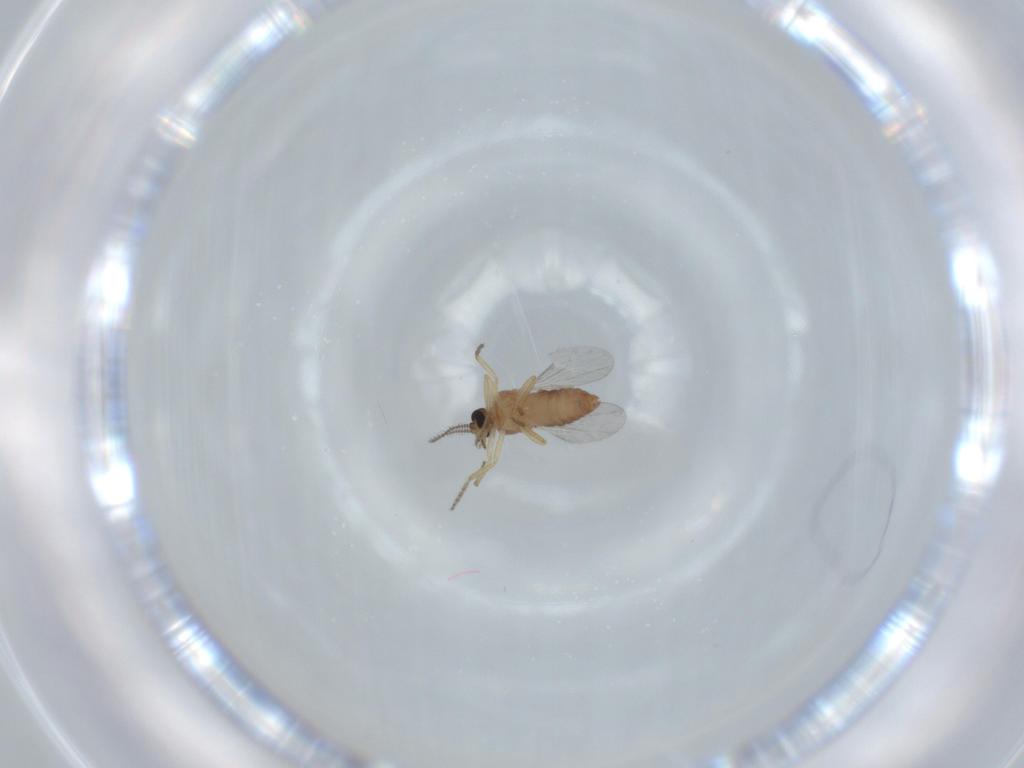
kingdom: Animalia
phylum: Arthropoda
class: Insecta
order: Diptera
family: Ceratopogonidae
